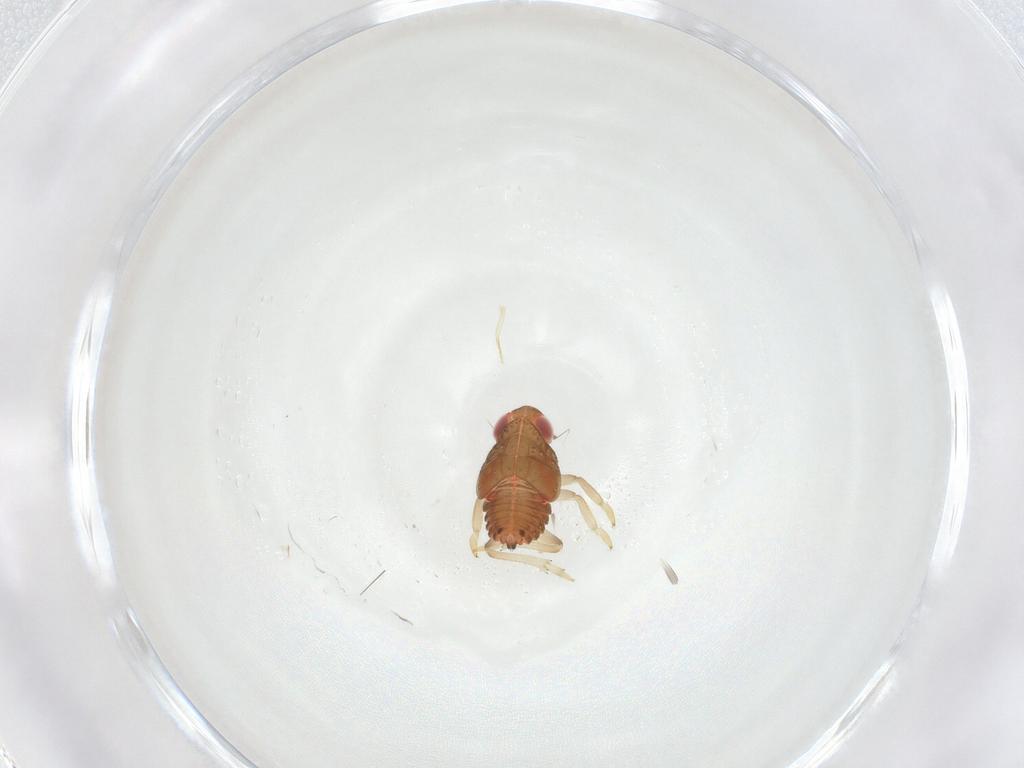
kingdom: Animalia
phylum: Arthropoda
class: Insecta
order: Hemiptera
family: Issidae
